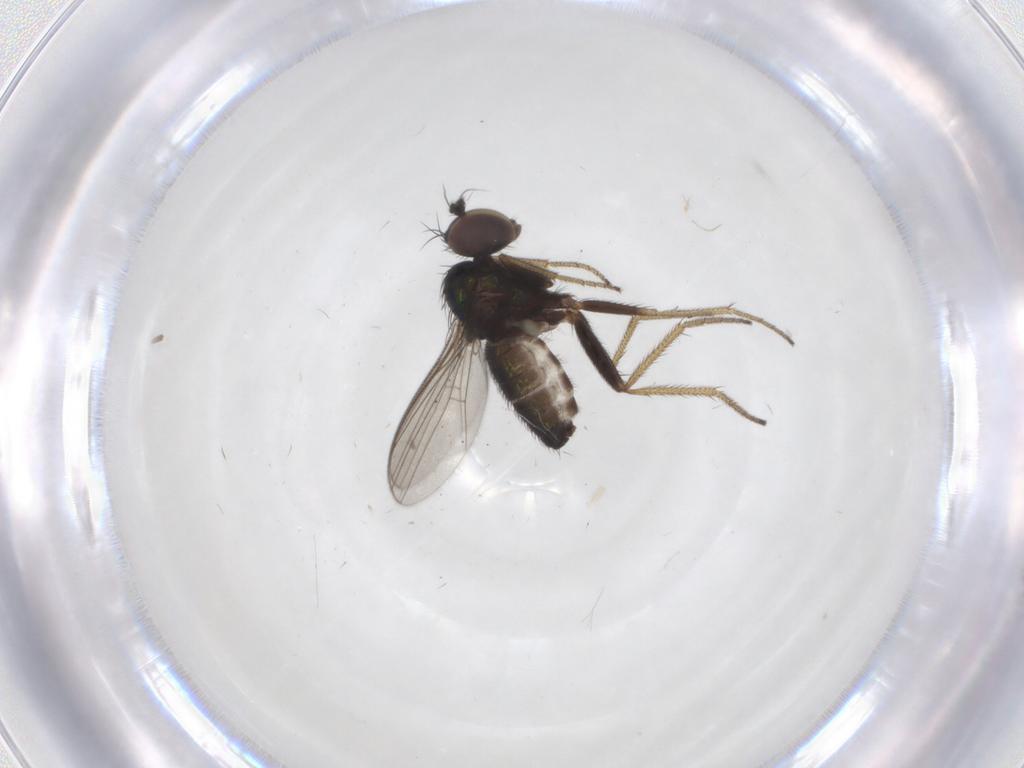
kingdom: Animalia
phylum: Arthropoda
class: Insecta
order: Diptera
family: Dolichopodidae
